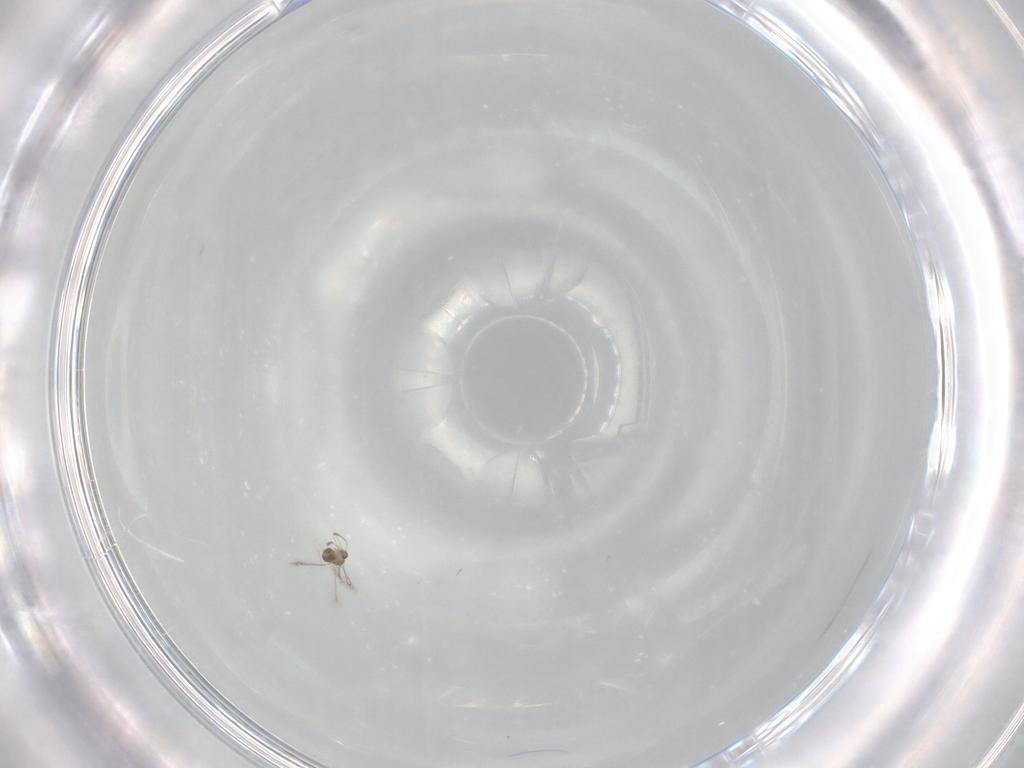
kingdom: Animalia
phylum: Arthropoda
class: Insecta
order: Hymenoptera
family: Mymaridae
